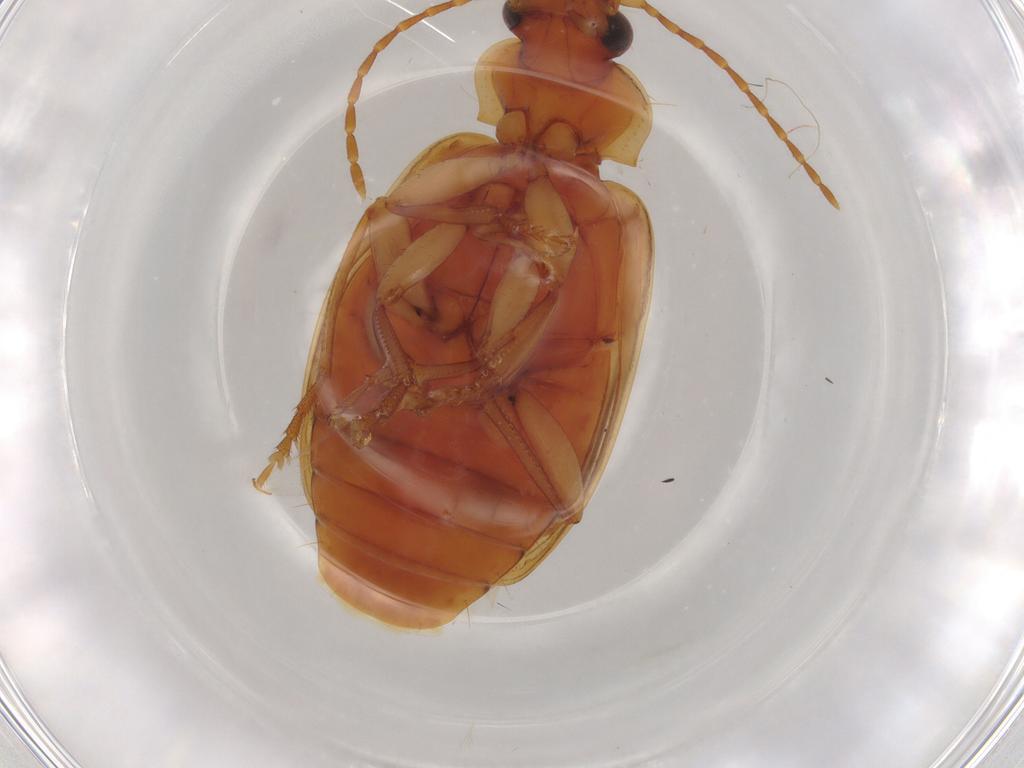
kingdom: Animalia
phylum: Arthropoda
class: Insecta
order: Coleoptera
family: Carabidae
